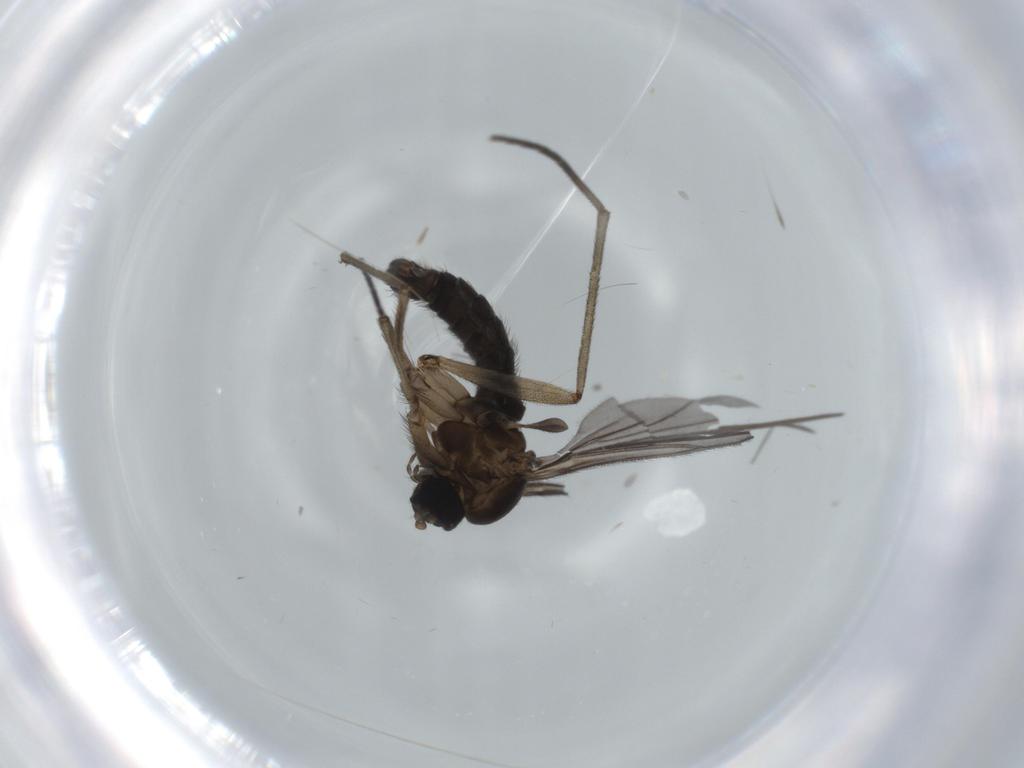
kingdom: Animalia
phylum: Arthropoda
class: Insecta
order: Diptera
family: Sciaridae
